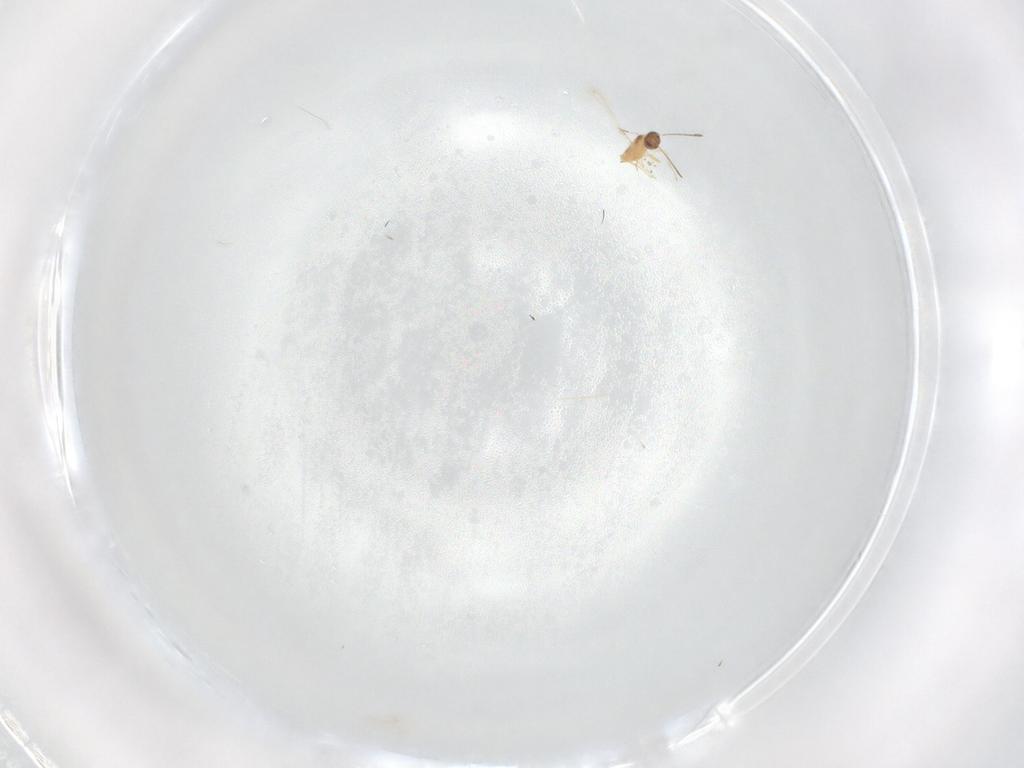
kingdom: Animalia
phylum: Arthropoda
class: Insecta
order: Hymenoptera
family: Mymaridae
